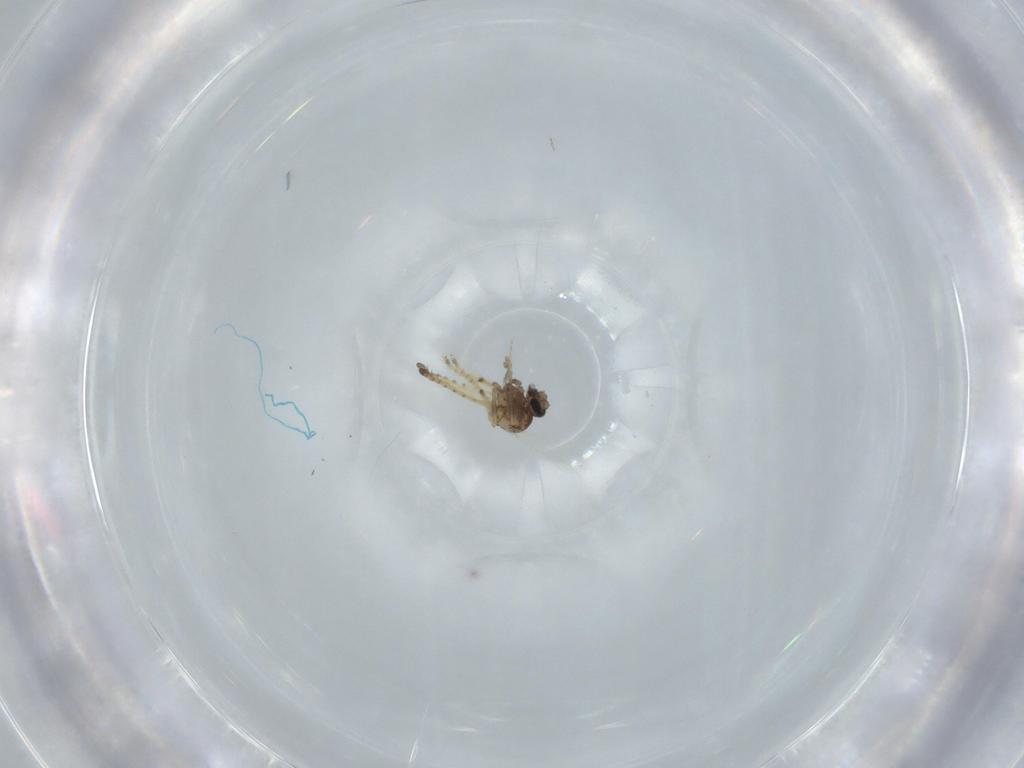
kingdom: Animalia
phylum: Arthropoda
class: Insecta
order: Diptera
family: Ceratopogonidae
